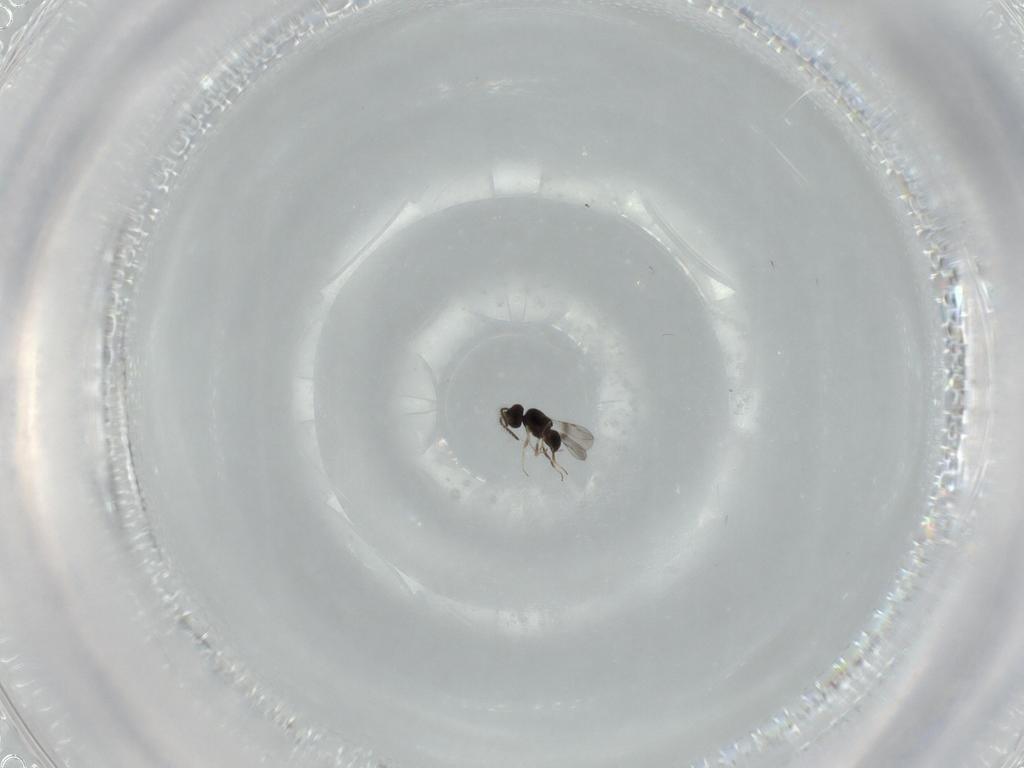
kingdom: Animalia
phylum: Arthropoda
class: Insecta
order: Hymenoptera
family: Ceraphronidae
